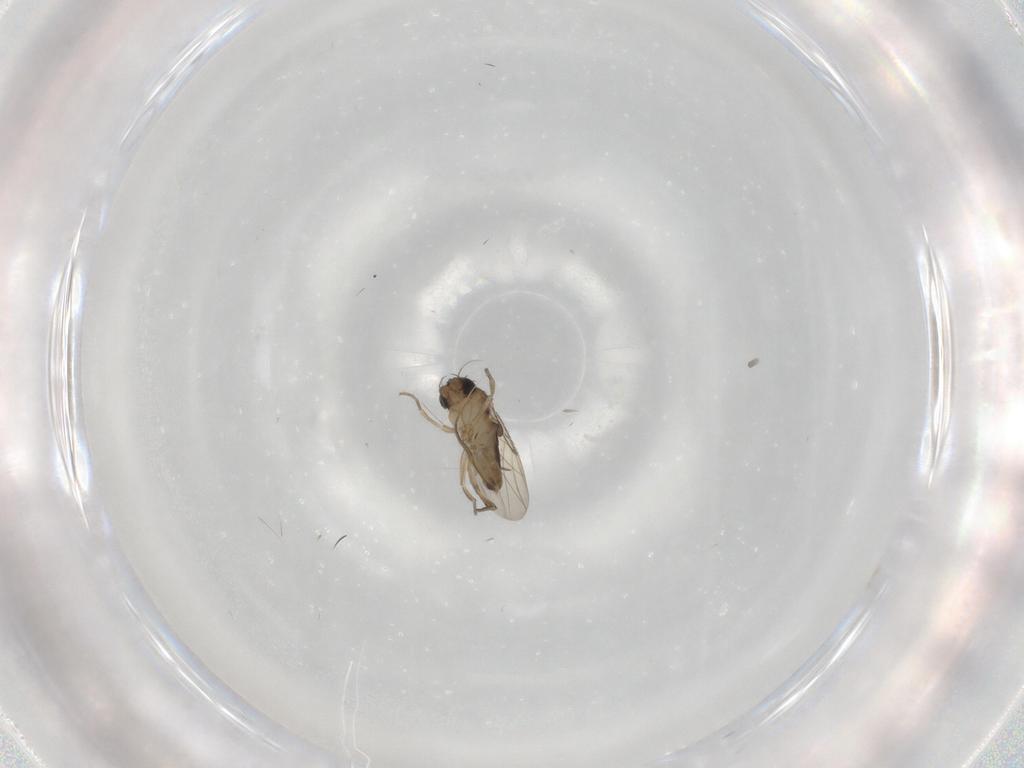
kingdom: Animalia
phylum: Arthropoda
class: Insecta
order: Diptera
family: Phoridae
